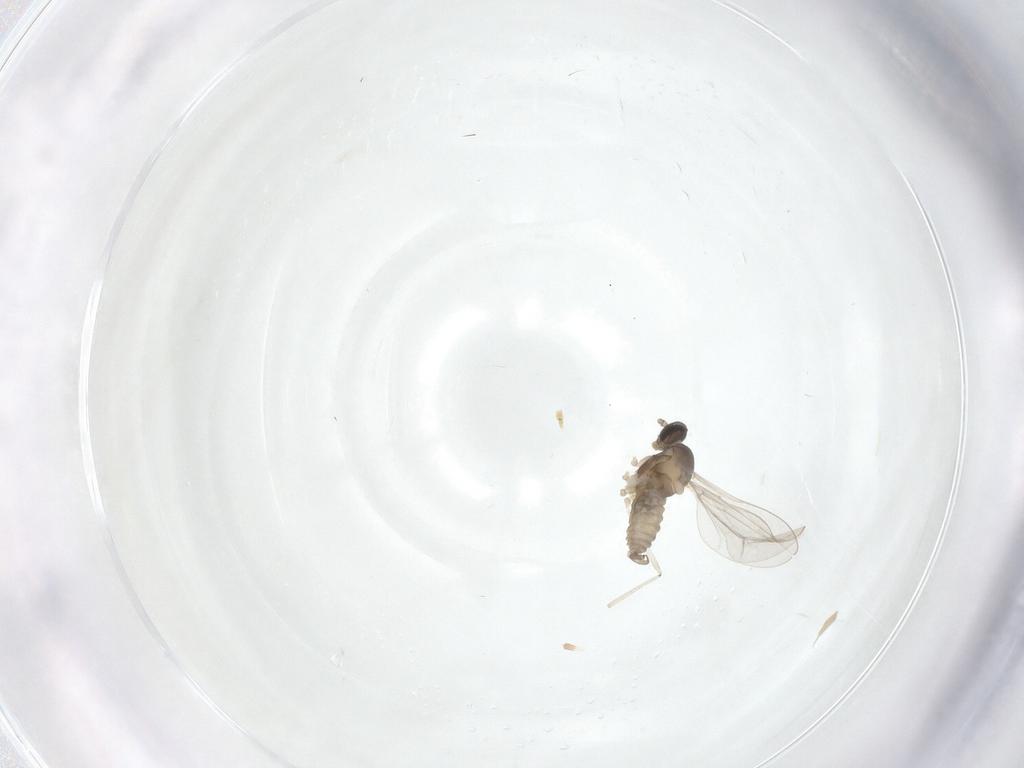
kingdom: Animalia
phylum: Arthropoda
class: Insecta
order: Diptera
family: Cecidomyiidae
